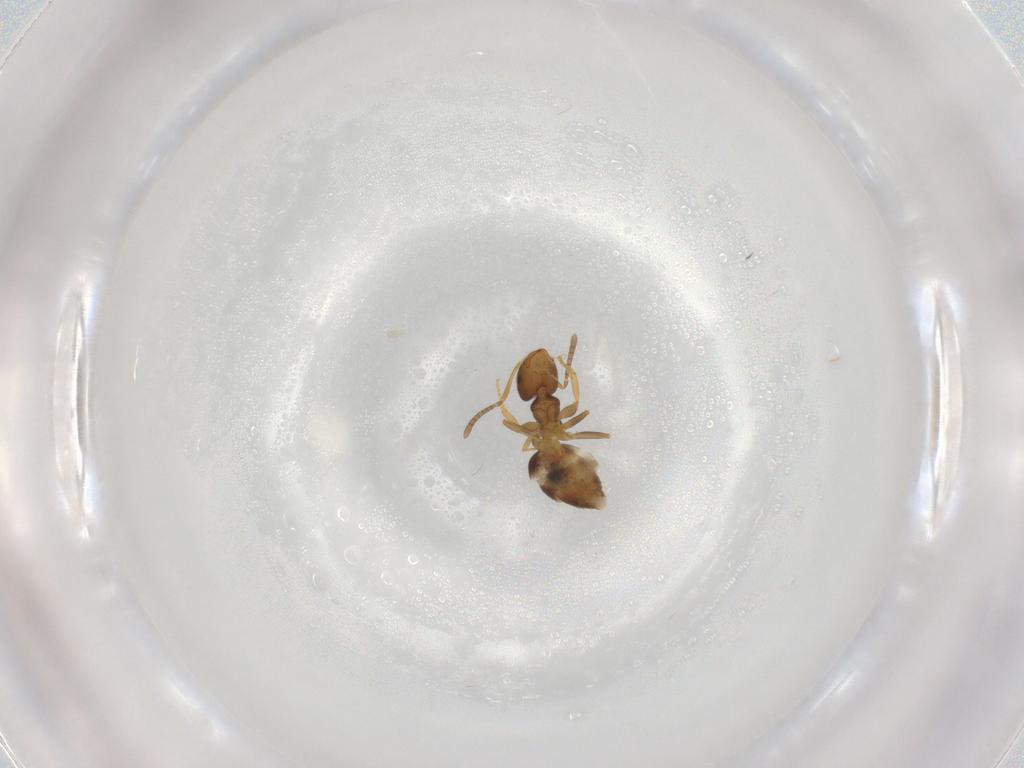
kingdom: Animalia
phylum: Arthropoda
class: Insecta
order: Hymenoptera
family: Formicidae
